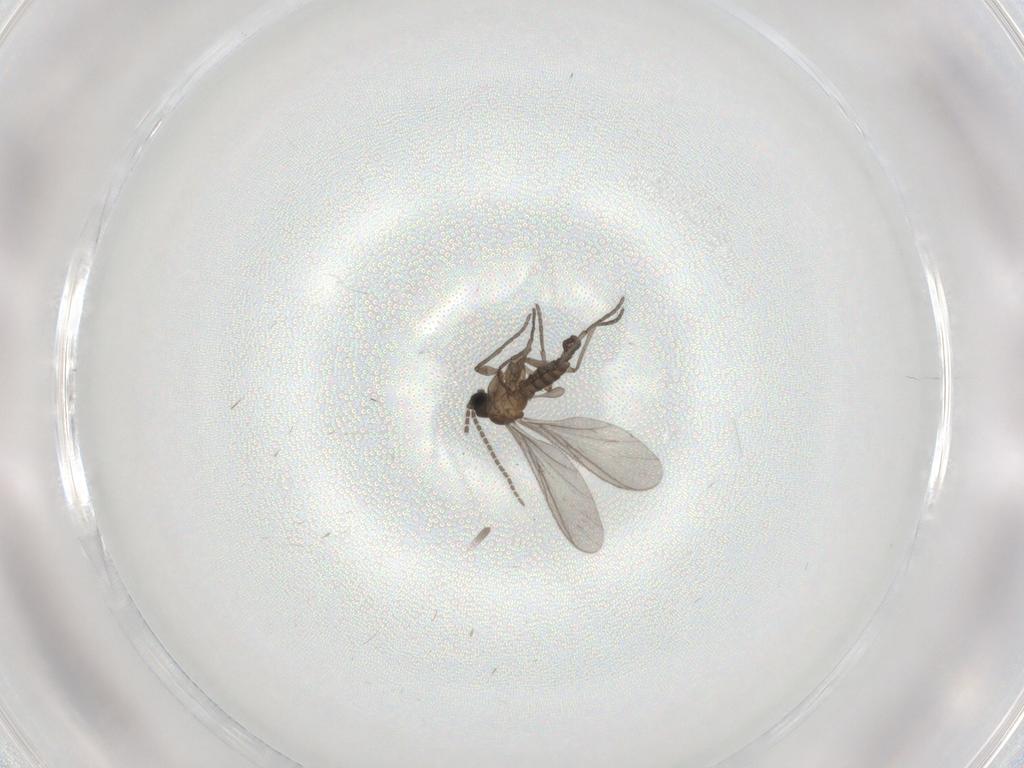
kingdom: Animalia
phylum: Arthropoda
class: Insecta
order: Diptera
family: Sciaridae
